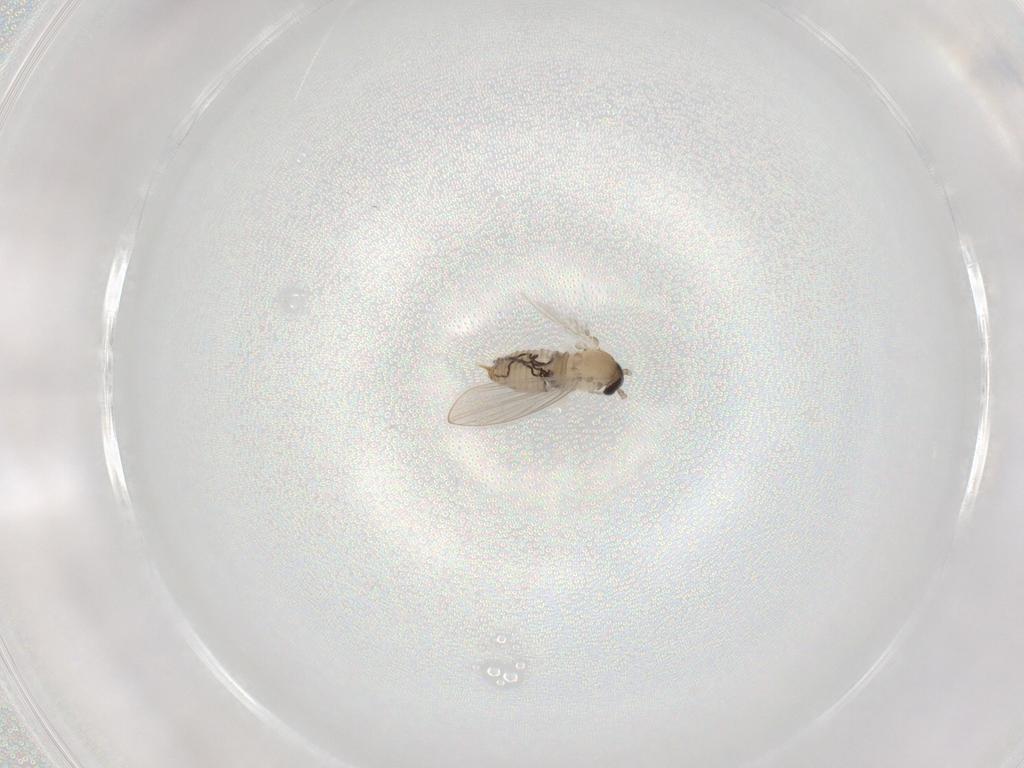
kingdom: Animalia
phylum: Arthropoda
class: Insecta
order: Diptera
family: Psychodidae
